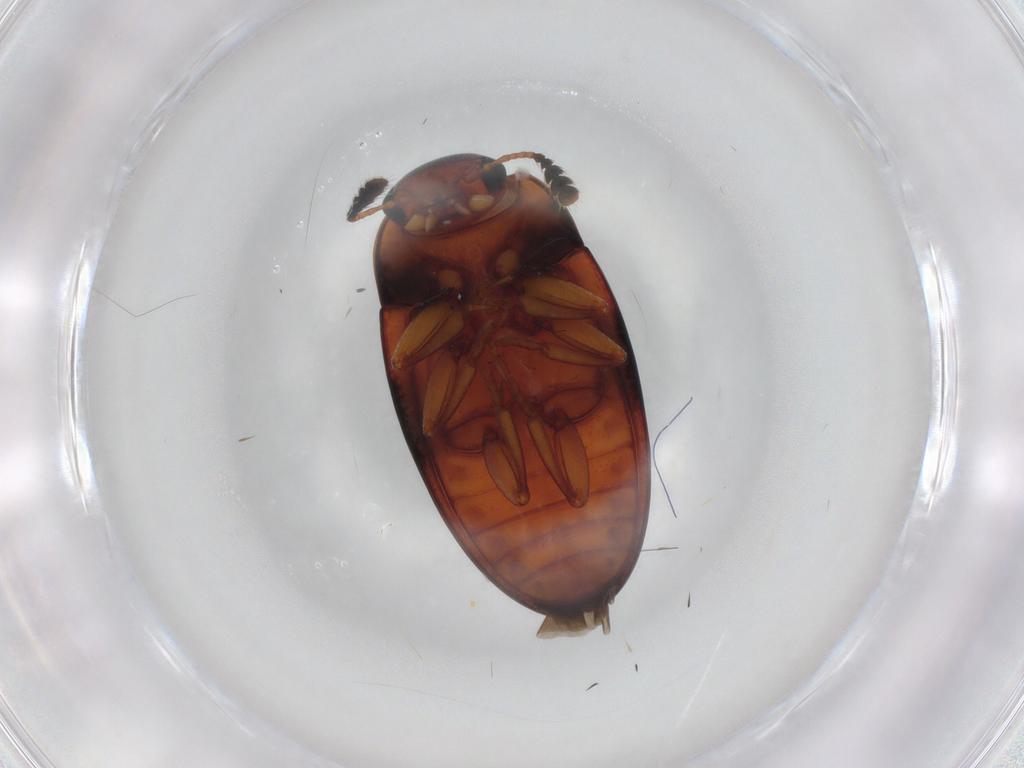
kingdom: Animalia
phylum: Arthropoda
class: Insecta
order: Coleoptera
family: Erotylidae
